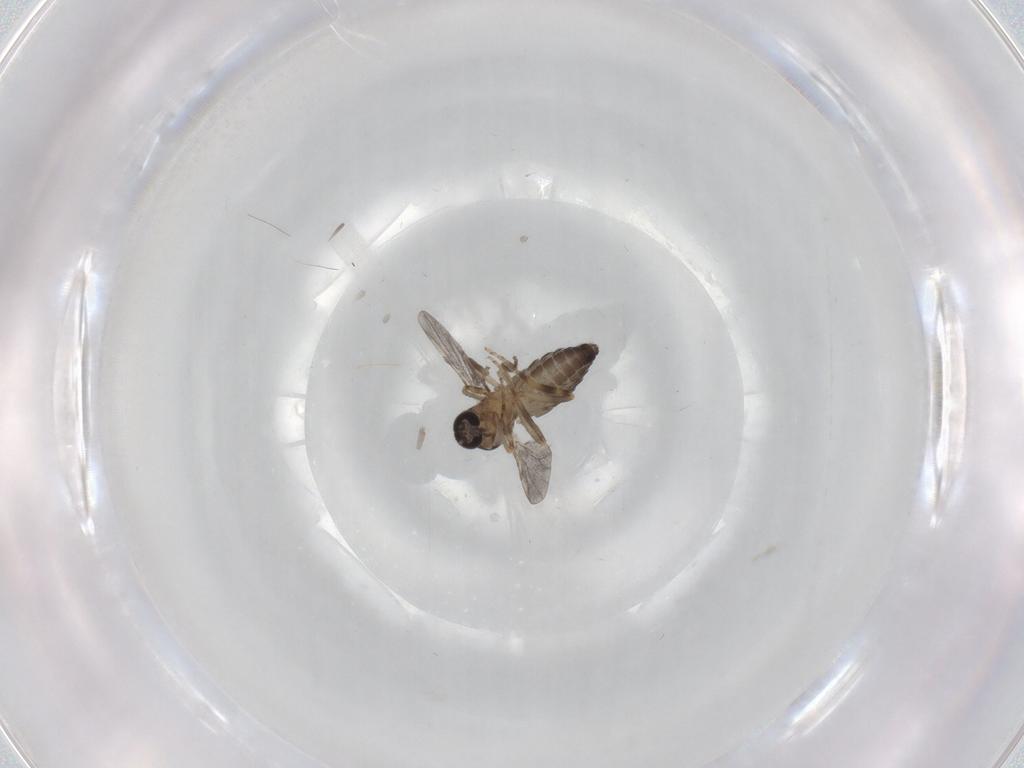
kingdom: Animalia
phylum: Arthropoda
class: Insecta
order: Diptera
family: Ceratopogonidae
